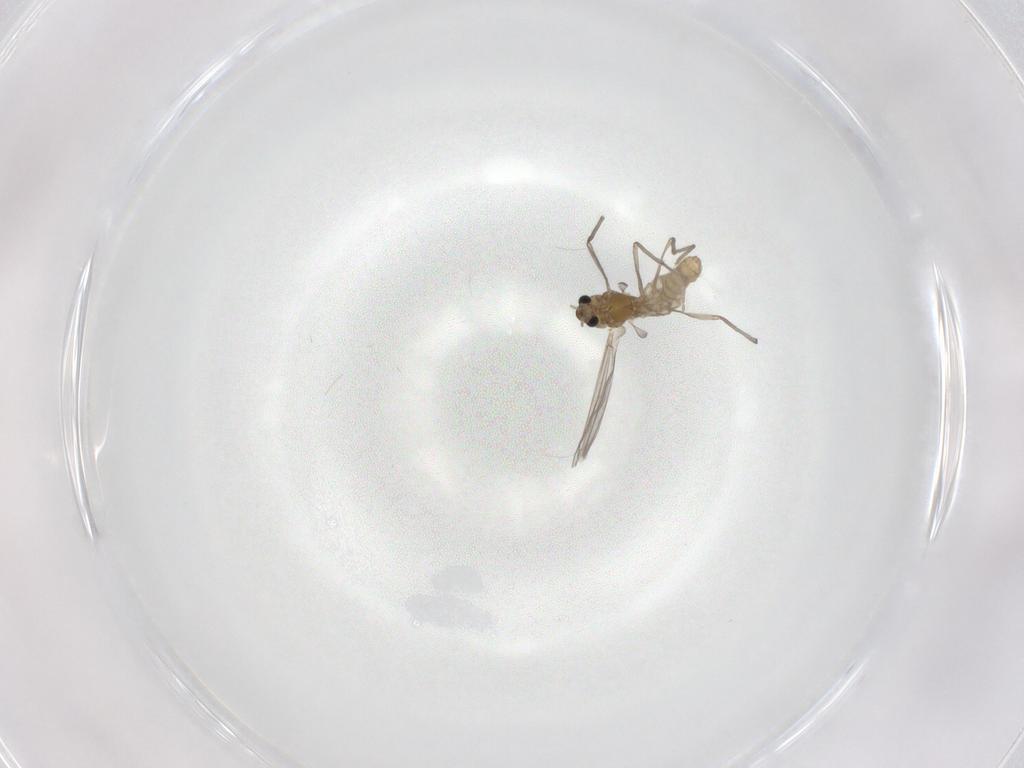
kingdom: Animalia
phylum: Arthropoda
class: Insecta
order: Diptera
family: Chironomidae
